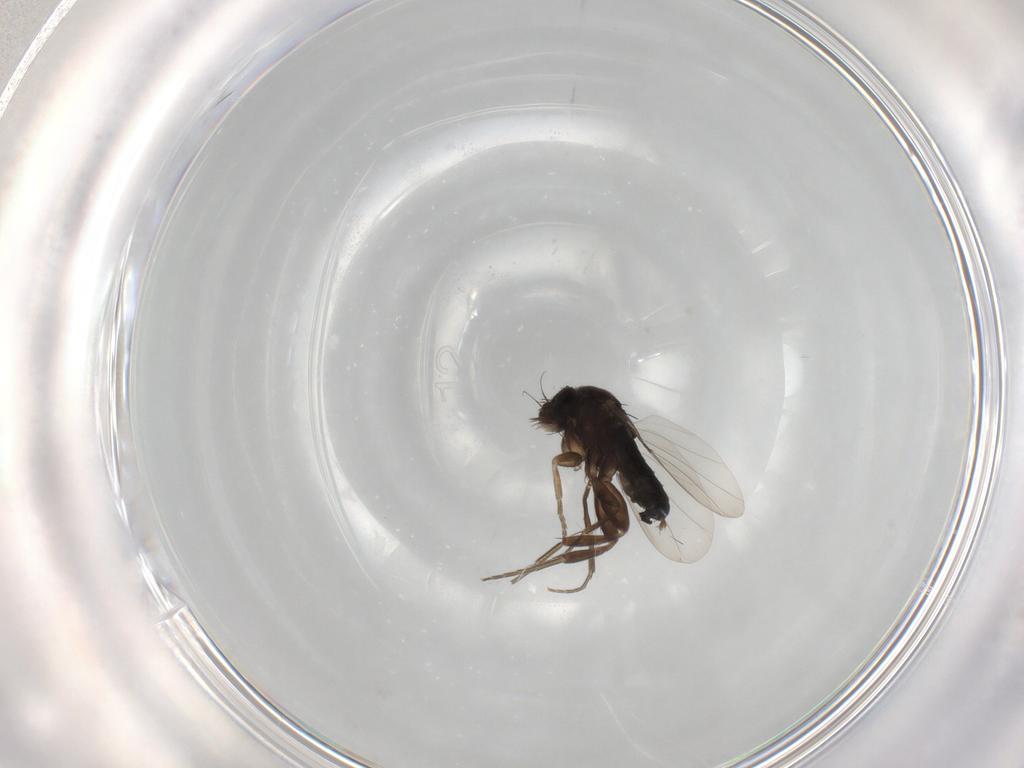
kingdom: Animalia
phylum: Arthropoda
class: Insecta
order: Diptera
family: Phoridae
